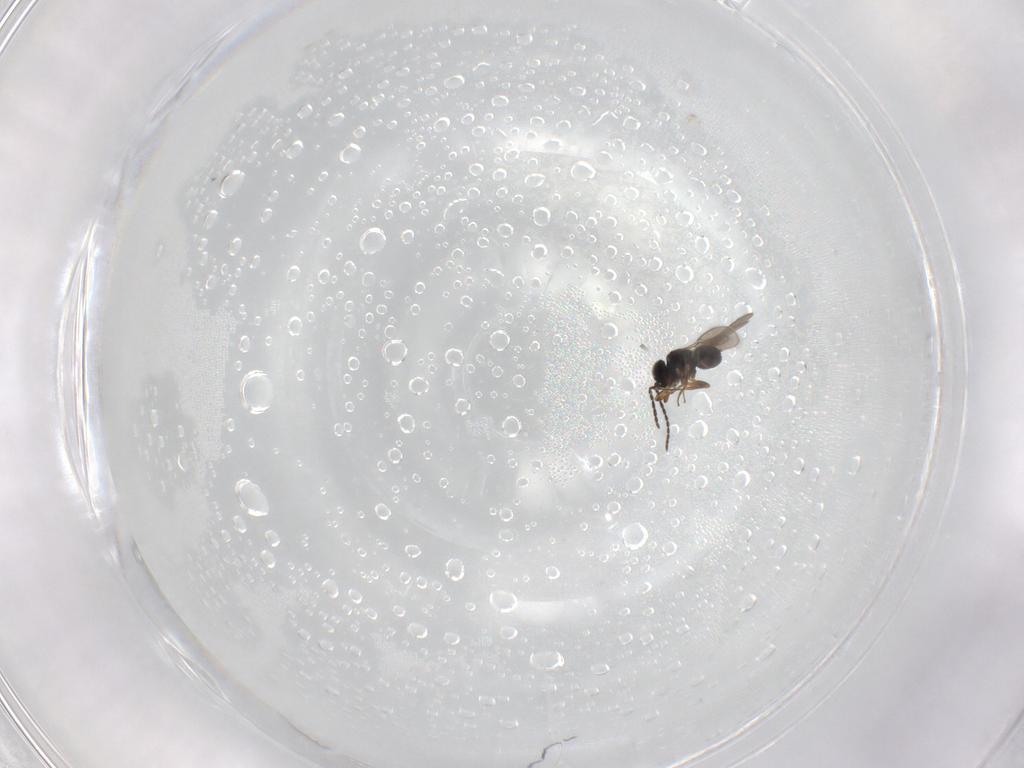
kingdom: Animalia
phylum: Arthropoda
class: Insecta
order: Hymenoptera
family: Scelionidae
